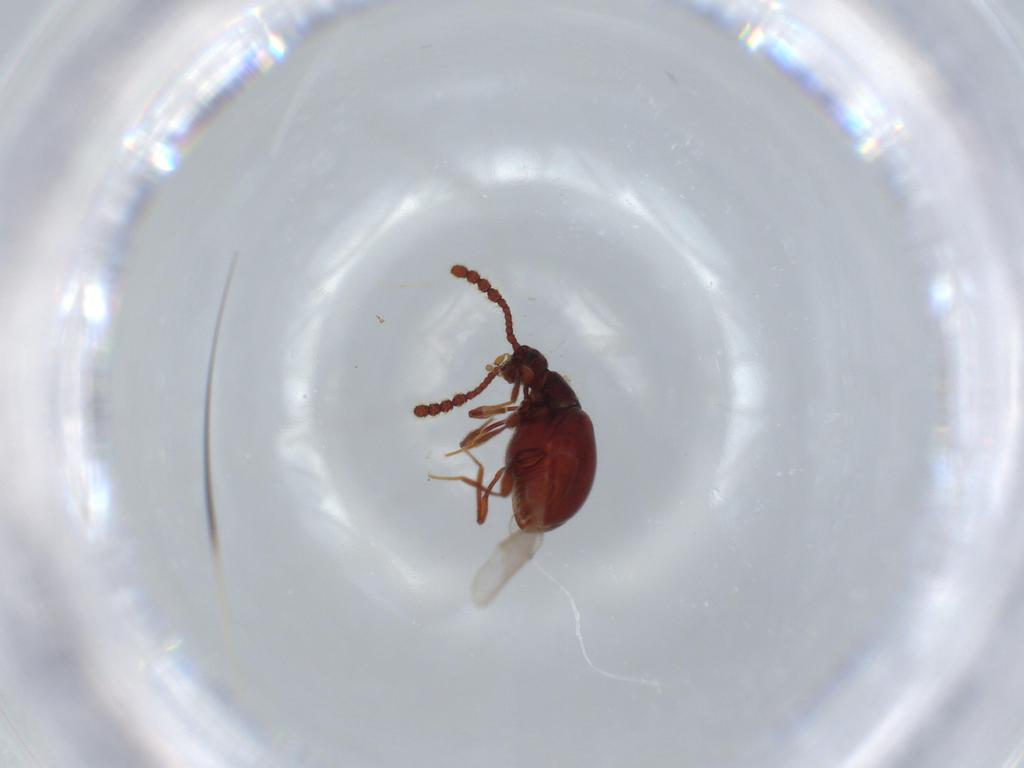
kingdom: Animalia
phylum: Arthropoda
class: Insecta
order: Coleoptera
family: Staphylinidae
